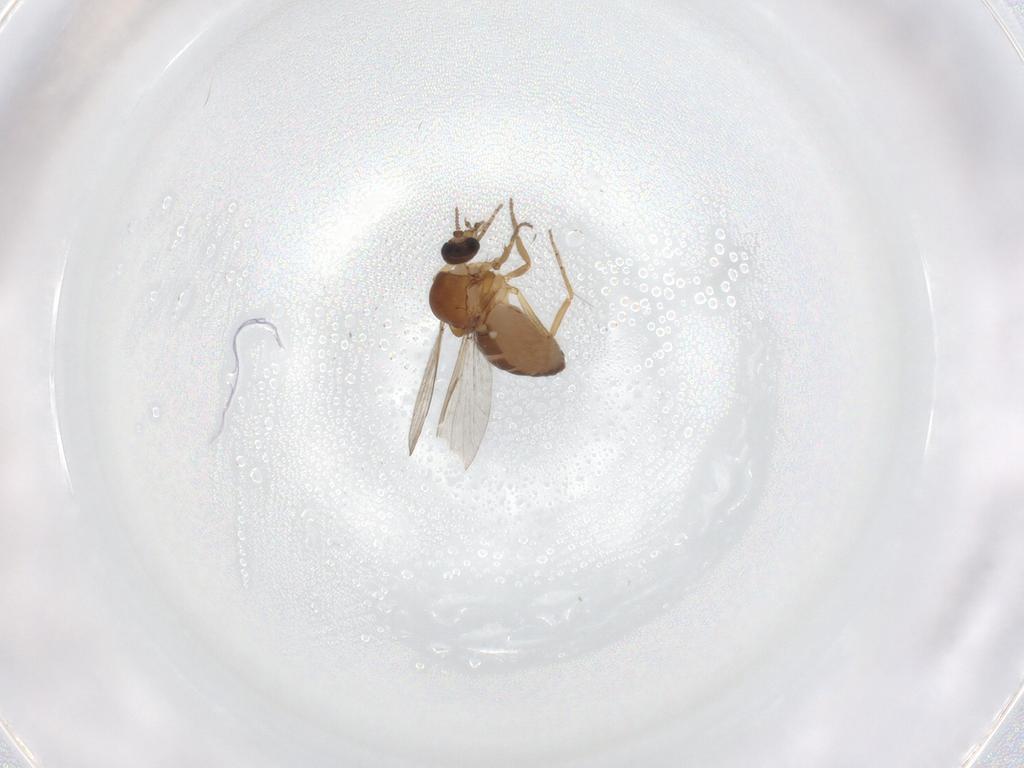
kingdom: Animalia
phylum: Arthropoda
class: Insecta
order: Diptera
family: Ceratopogonidae
